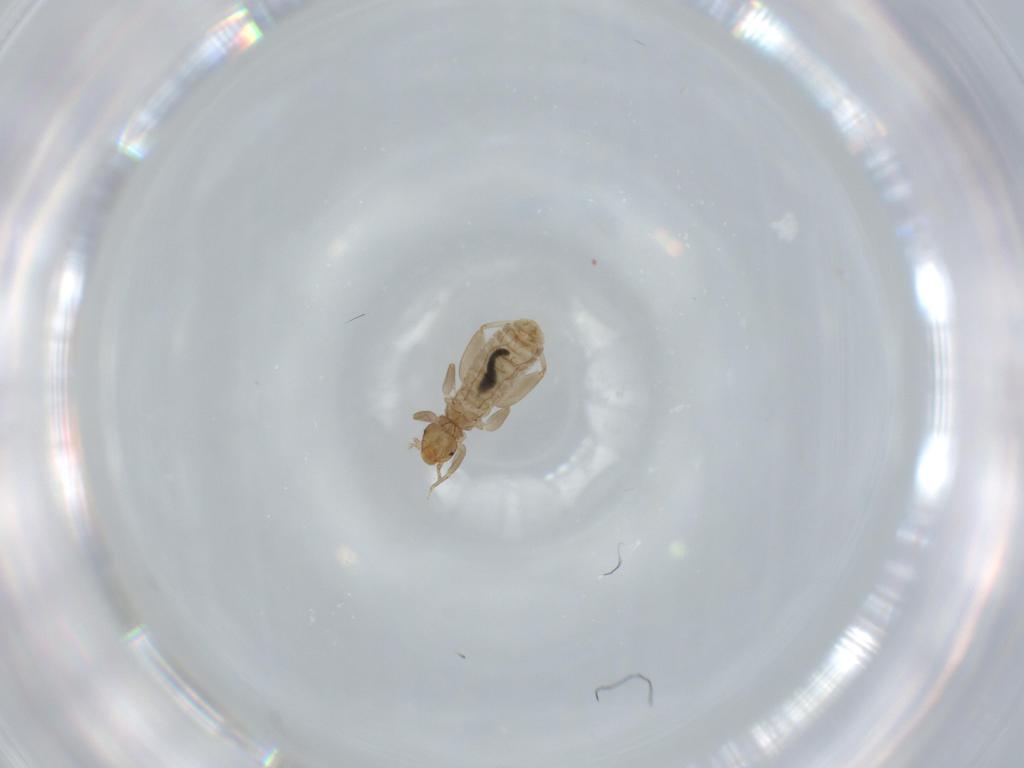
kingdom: Animalia
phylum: Arthropoda
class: Insecta
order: Psocodea
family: Liposcelididae
